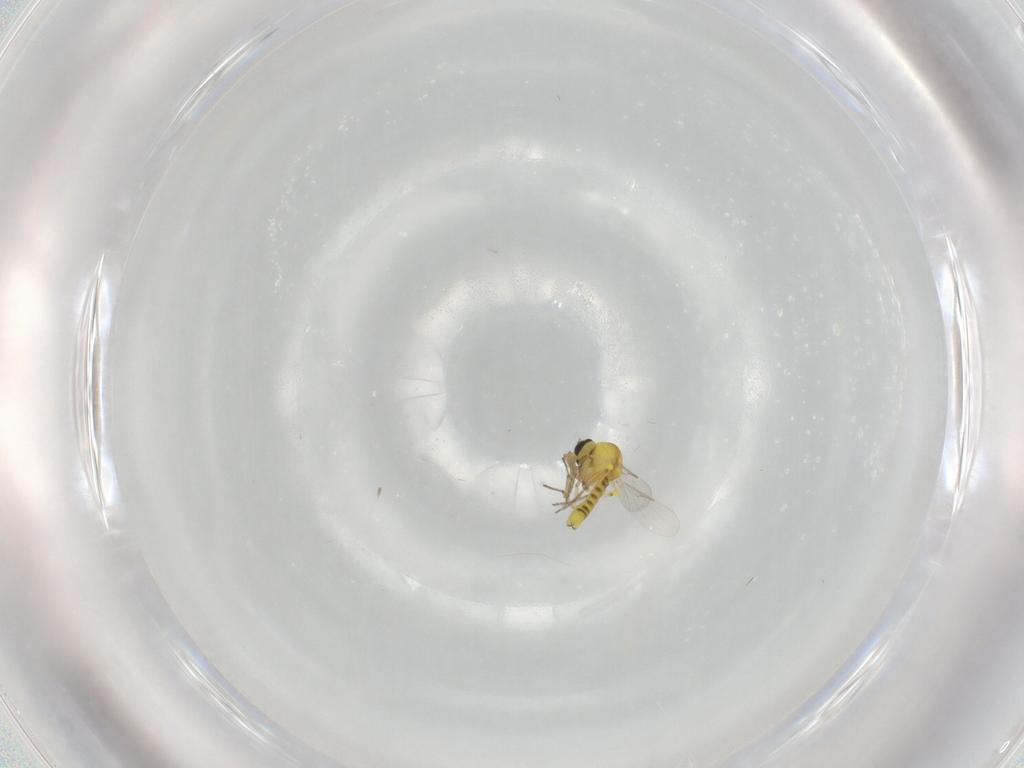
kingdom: Animalia
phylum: Arthropoda
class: Insecta
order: Diptera
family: Ceratopogonidae
